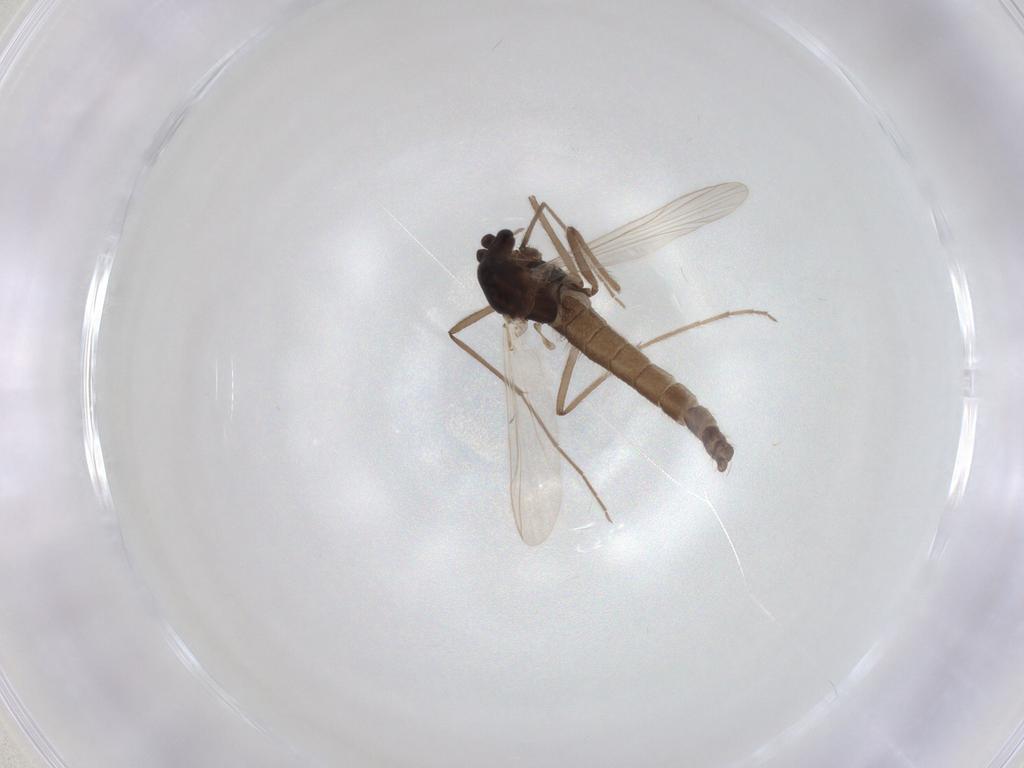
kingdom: Animalia
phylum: Arthropoda
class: Insecta
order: Diptera
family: Chironomidae
